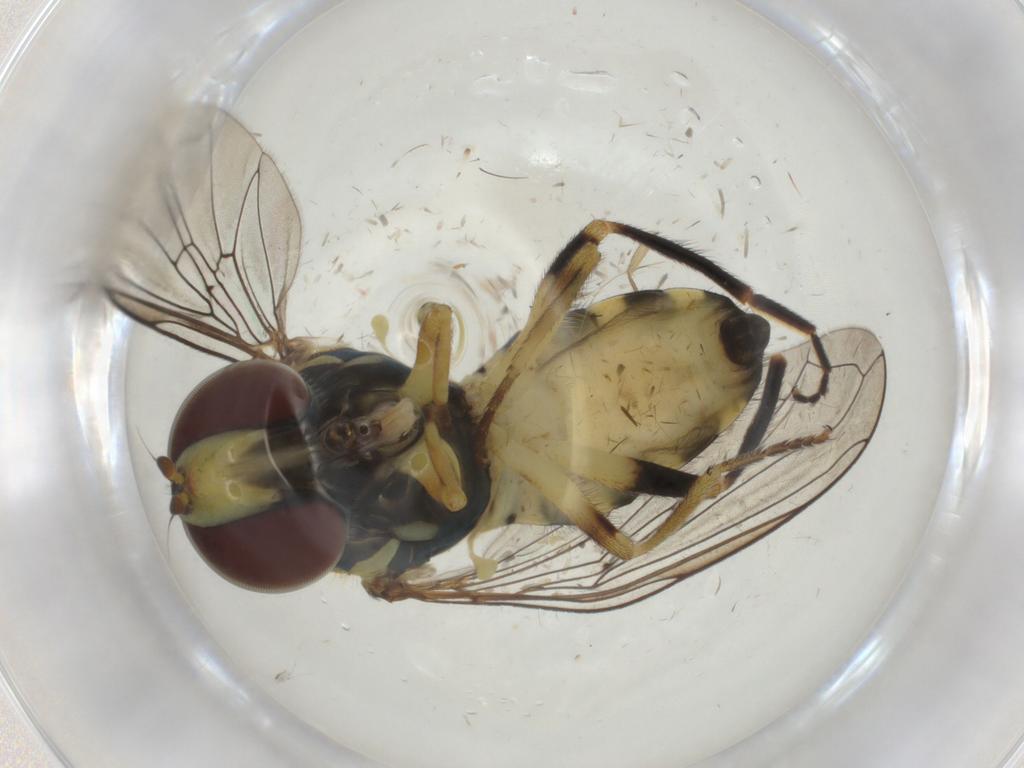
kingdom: Animalia
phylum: Arthropoda
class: Insecta
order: Diptera
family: Syrphidae
